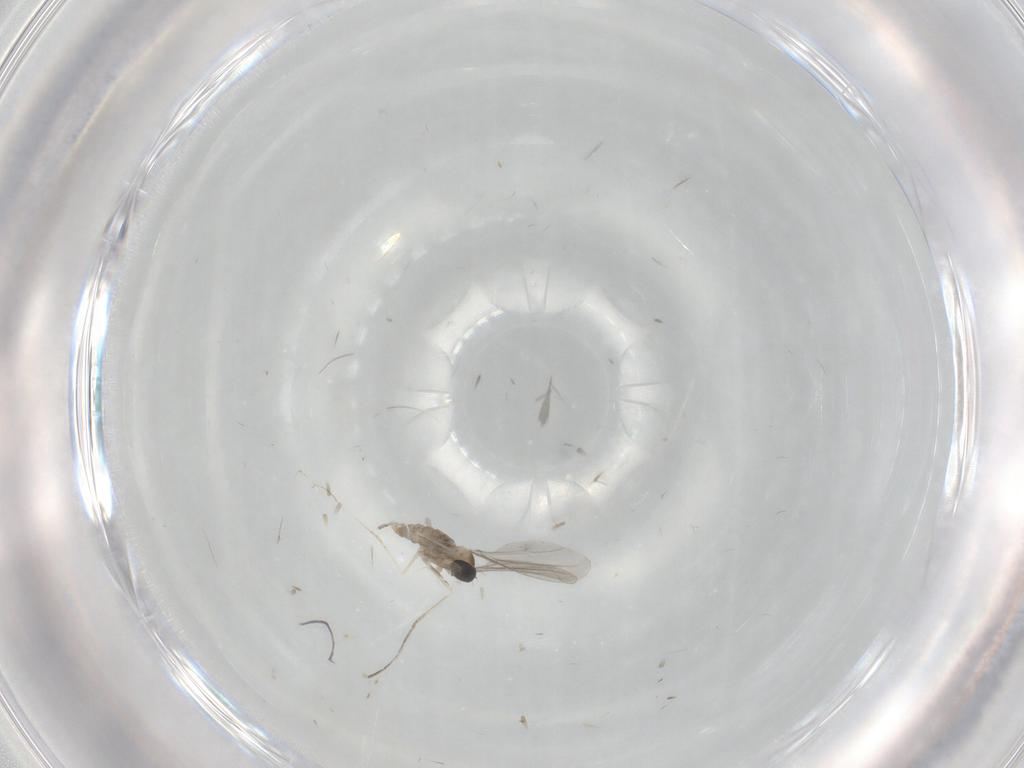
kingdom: Animalia
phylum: Arthropoda
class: Insecta
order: Diptera
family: Cecidomyiidae
